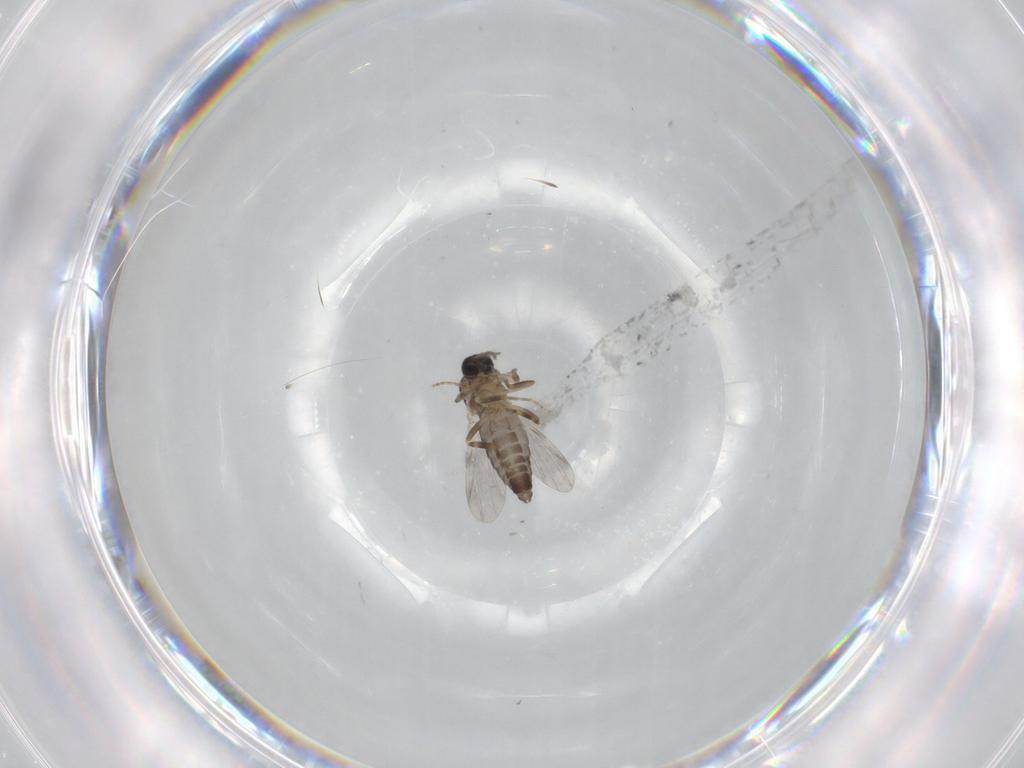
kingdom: Animalia
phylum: Arthropoda
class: Insecta
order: Diptera
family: Ceratopogonidae
